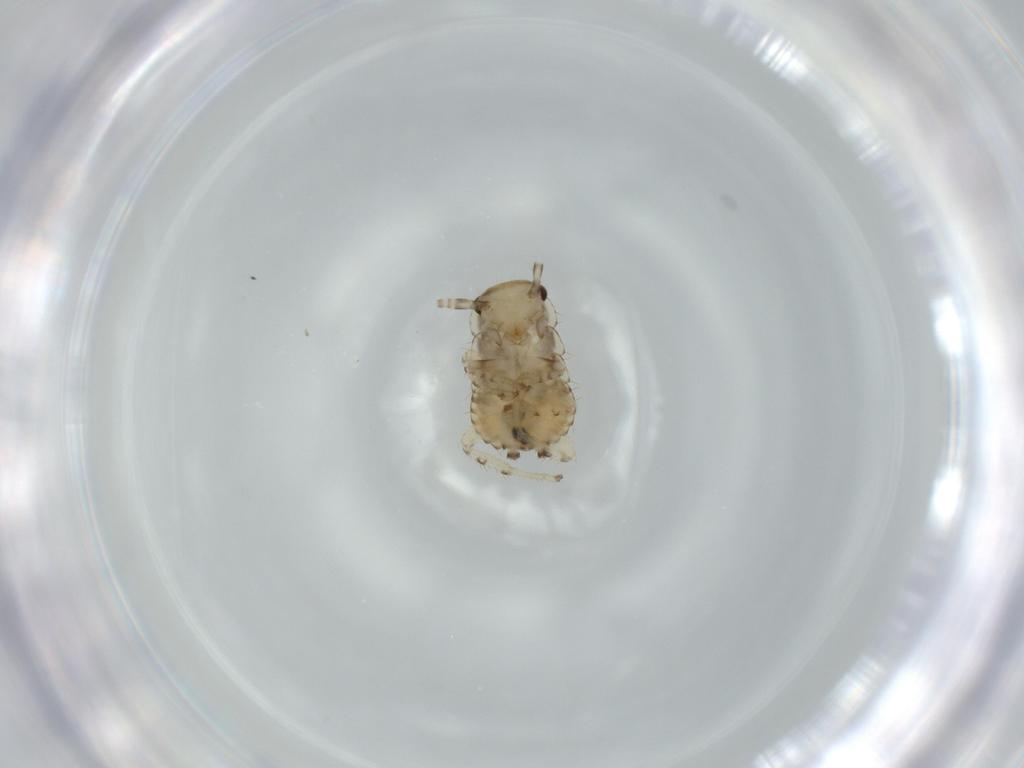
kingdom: Animalia
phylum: Arthropoda
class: Insecta
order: Blattodea
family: Ectobiidae
